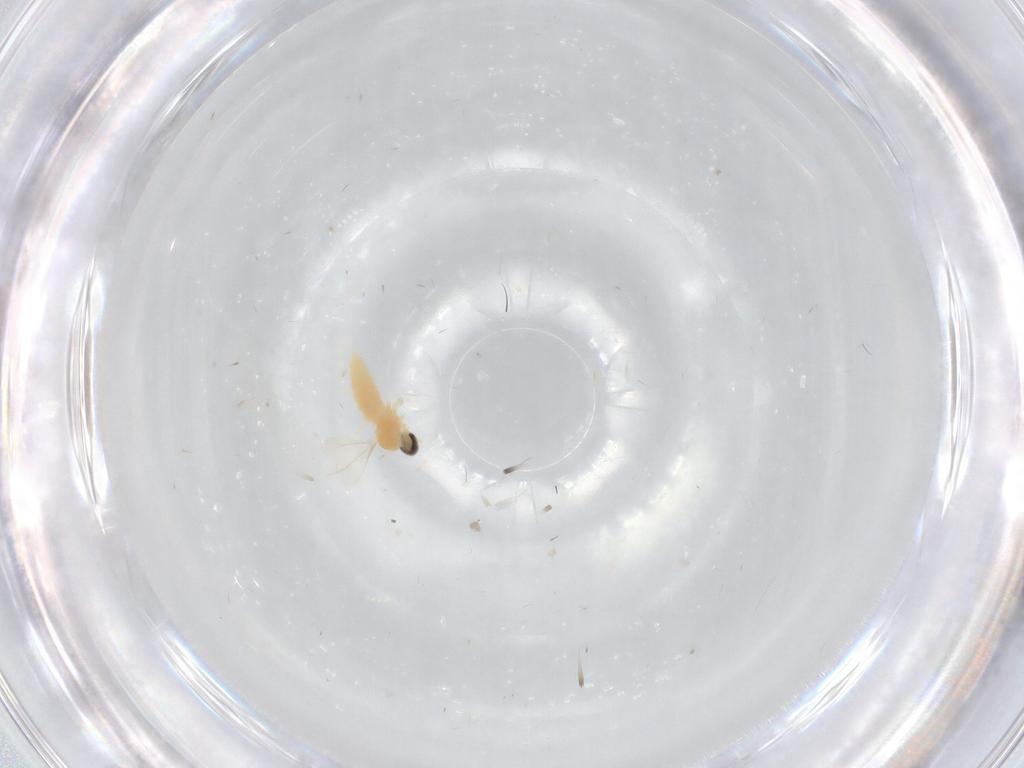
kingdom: Animalia
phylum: Arthropoda
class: Insecta
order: Diptera
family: Cecidomyiidae
